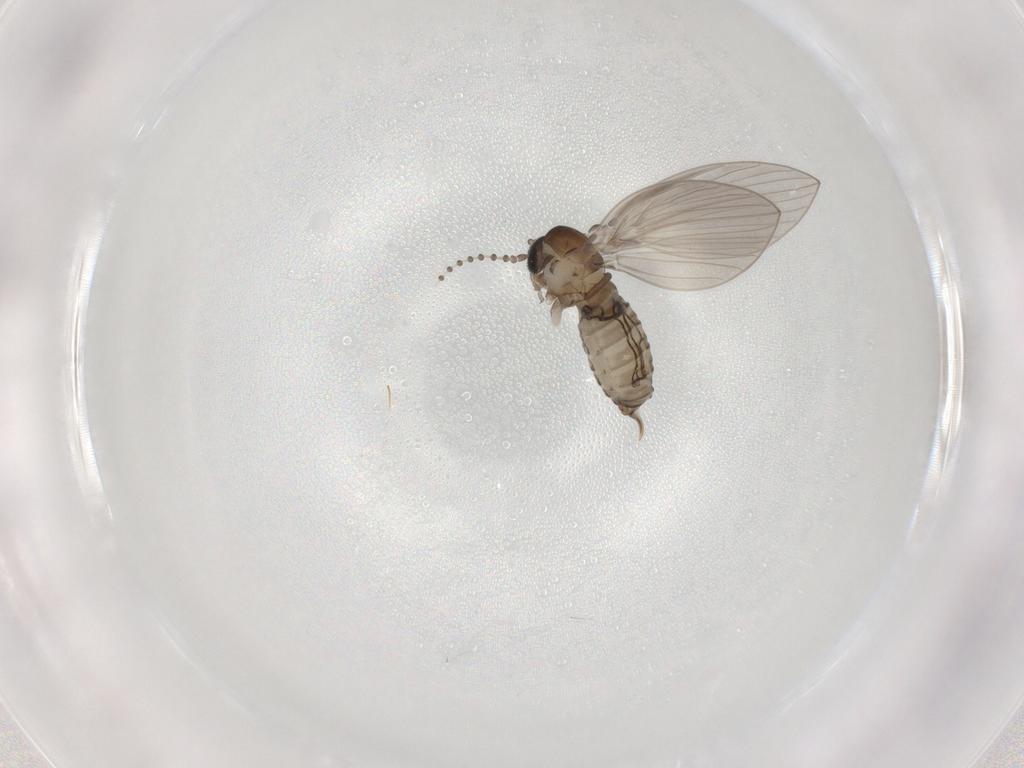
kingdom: Animalia
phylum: Arthropoda
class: Insecta
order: Diptera
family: Psychodidae
